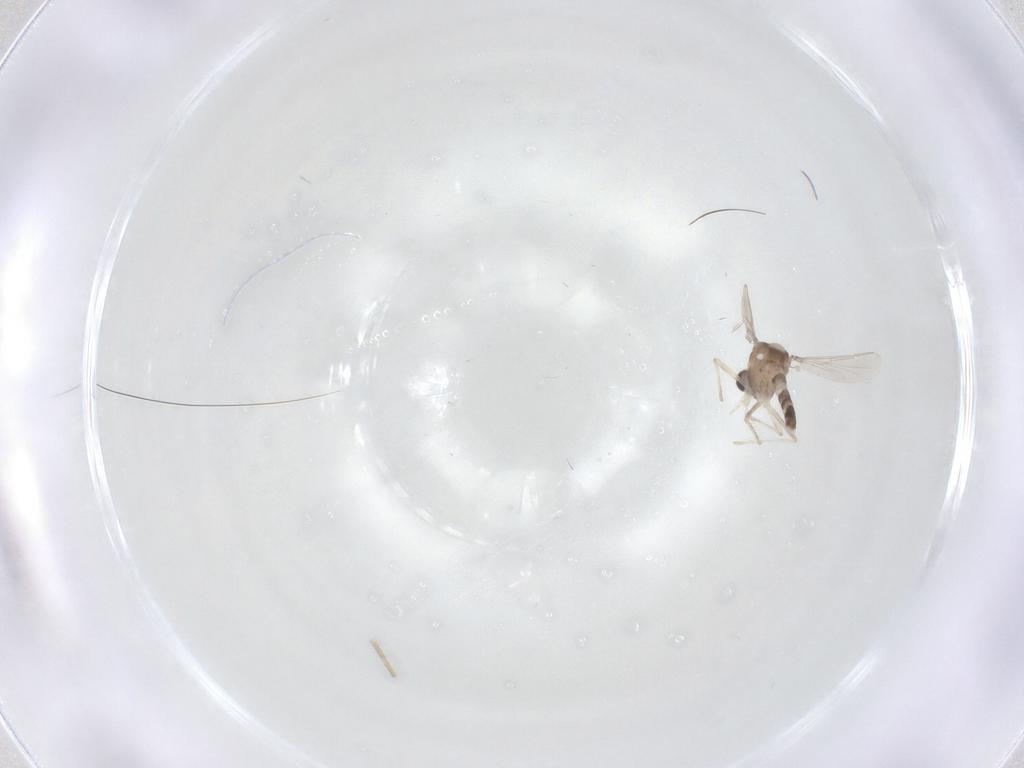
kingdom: Animalia
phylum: Arthropoda
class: Insecta
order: Diptera
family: Chironomidae
